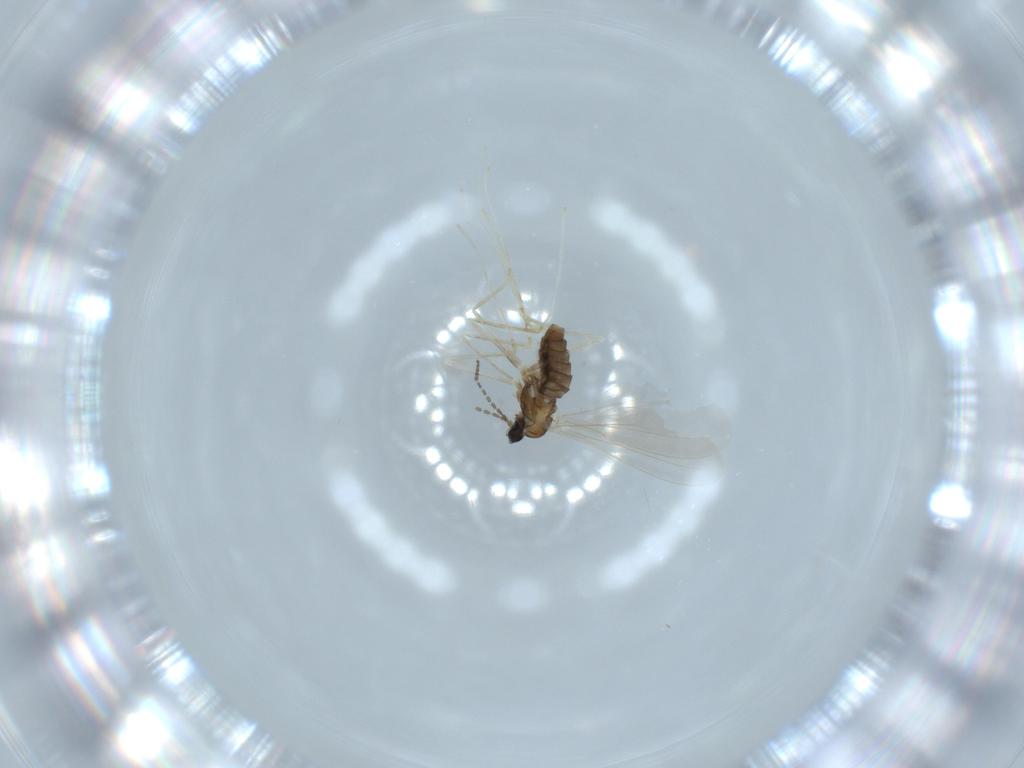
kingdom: Animalia
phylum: Arthropoda
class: Insecta
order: Diptera
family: Cecidomyiidae
